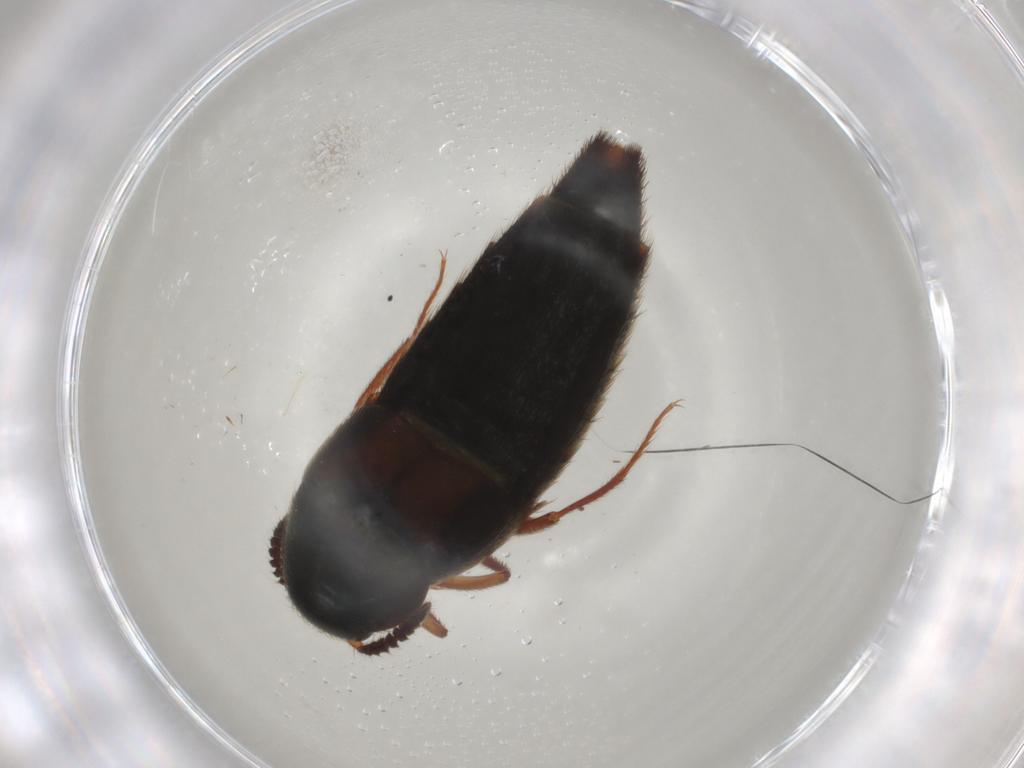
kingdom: Animalia
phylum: Arthropoda
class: Insecta
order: Coleoptera
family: Staphylinidae
